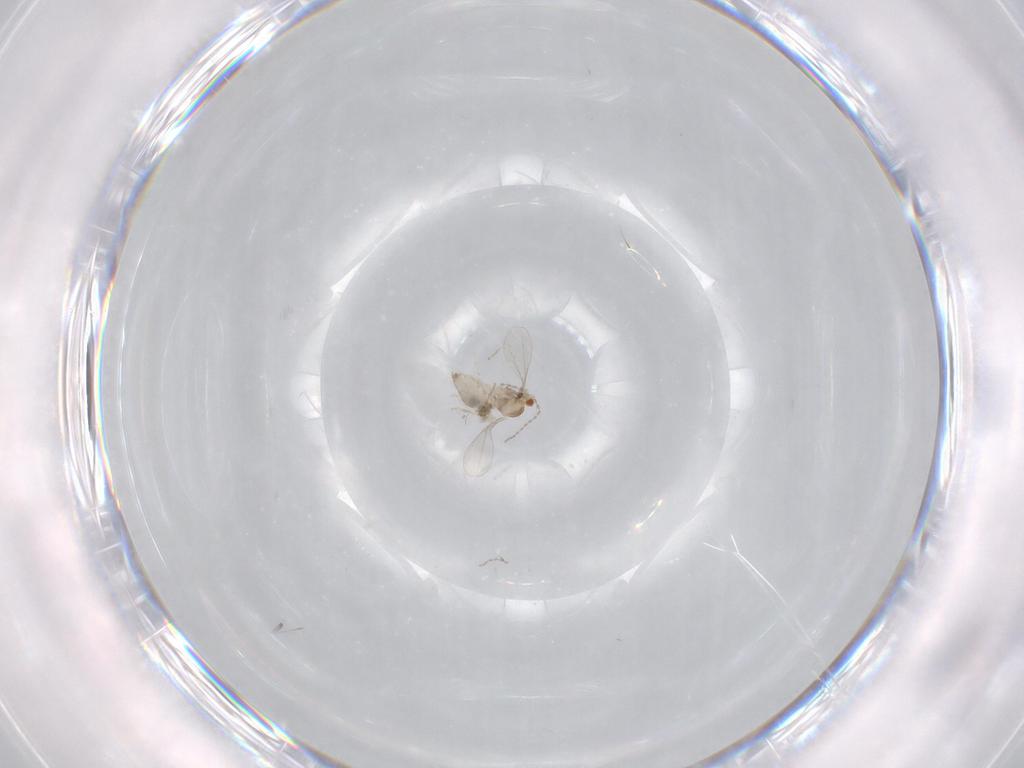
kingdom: Animalia
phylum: Arthropoda
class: Insecta
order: Diptera
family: Cecidomyiidae
